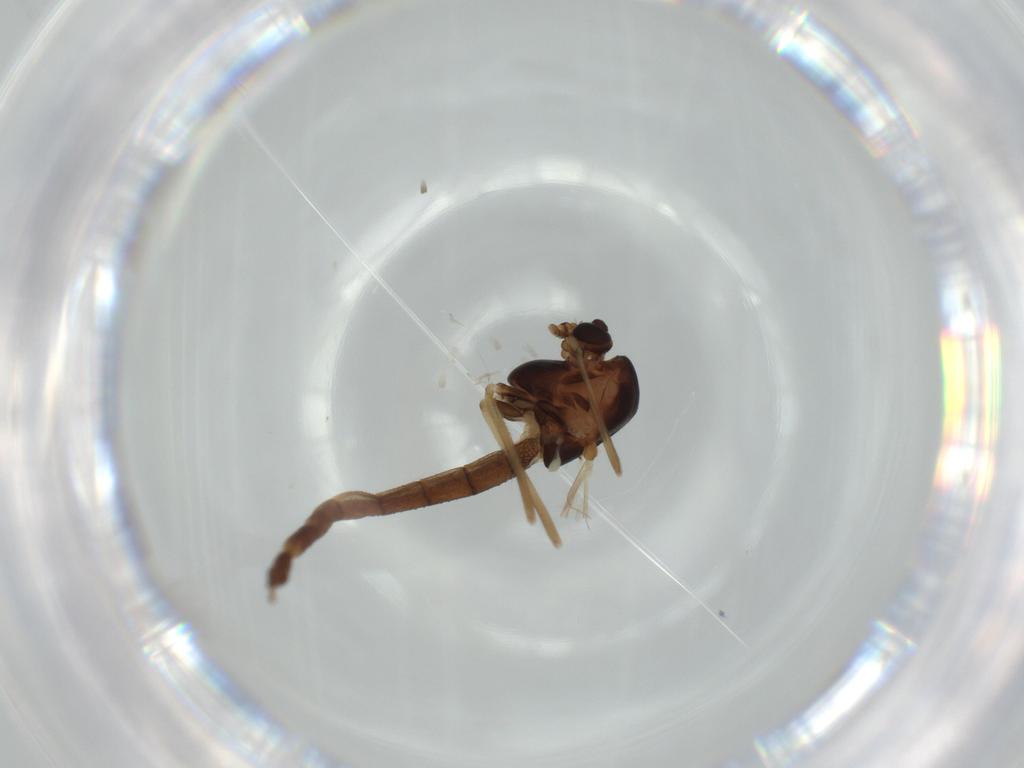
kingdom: Animalia
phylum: Arthropoda
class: Insecta
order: Diptera
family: Chironomidae
